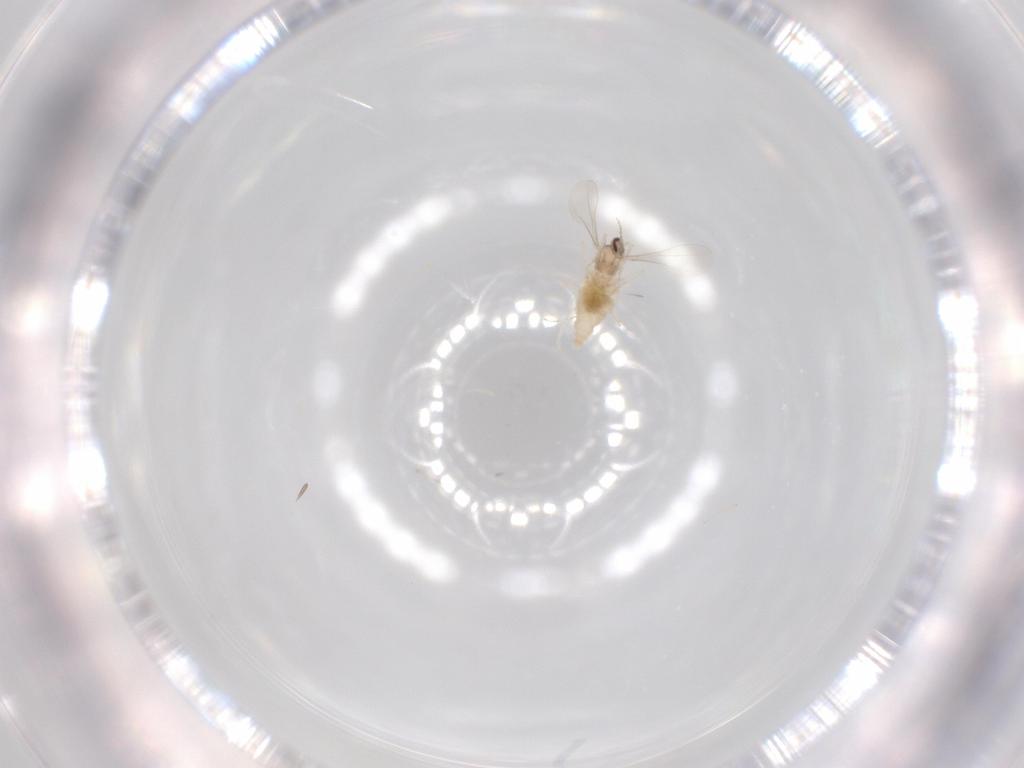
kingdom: Animalia
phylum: Arthropoda
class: Insecta
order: Diptera
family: Cecidomyiidae
